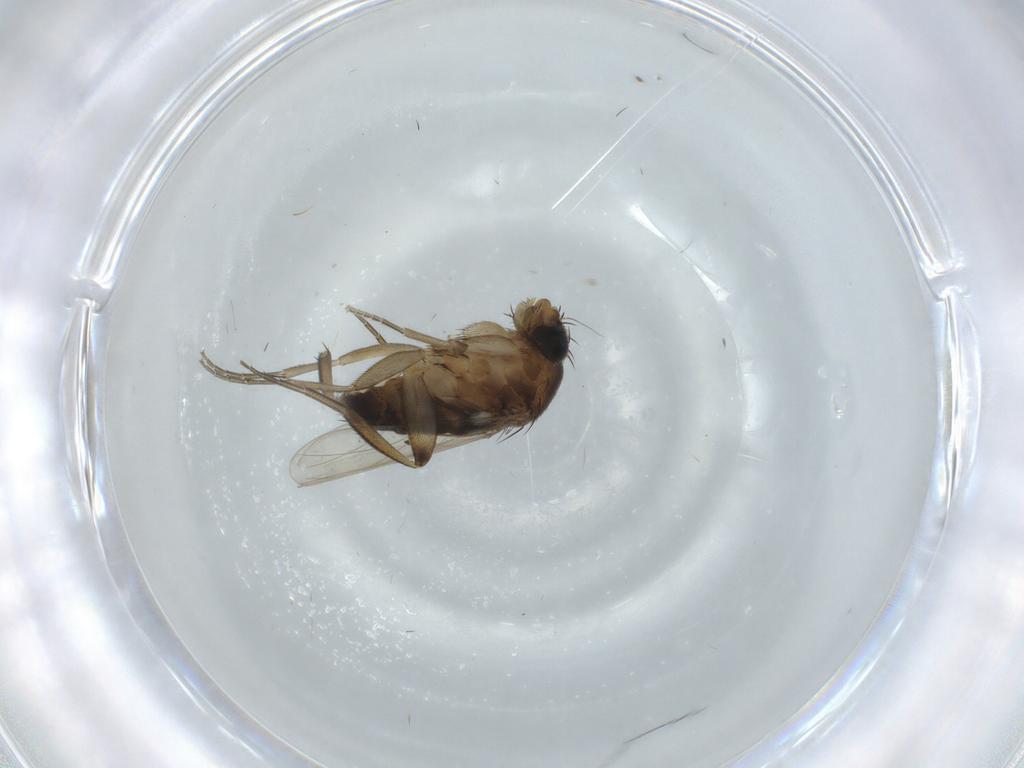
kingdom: Animalia
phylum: Arthropoda
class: Insecta
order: Diptera
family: Phoridae
